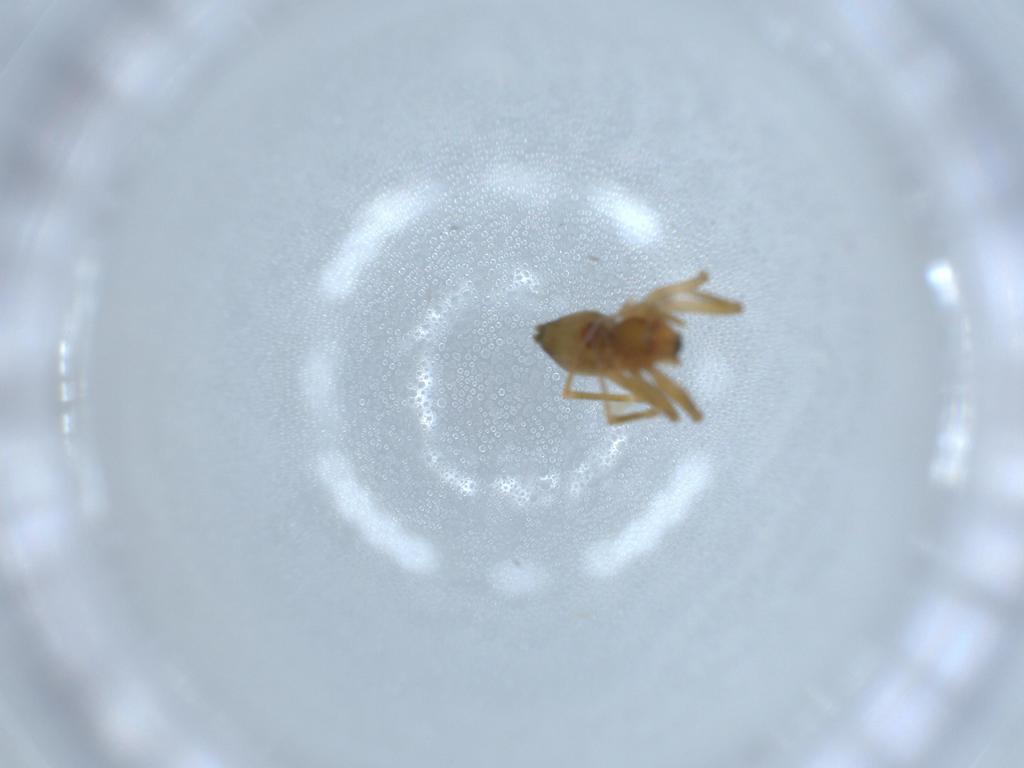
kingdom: Animalia
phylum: Arthropoda
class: Arachnida
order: Araneae
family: Linyphiidae
